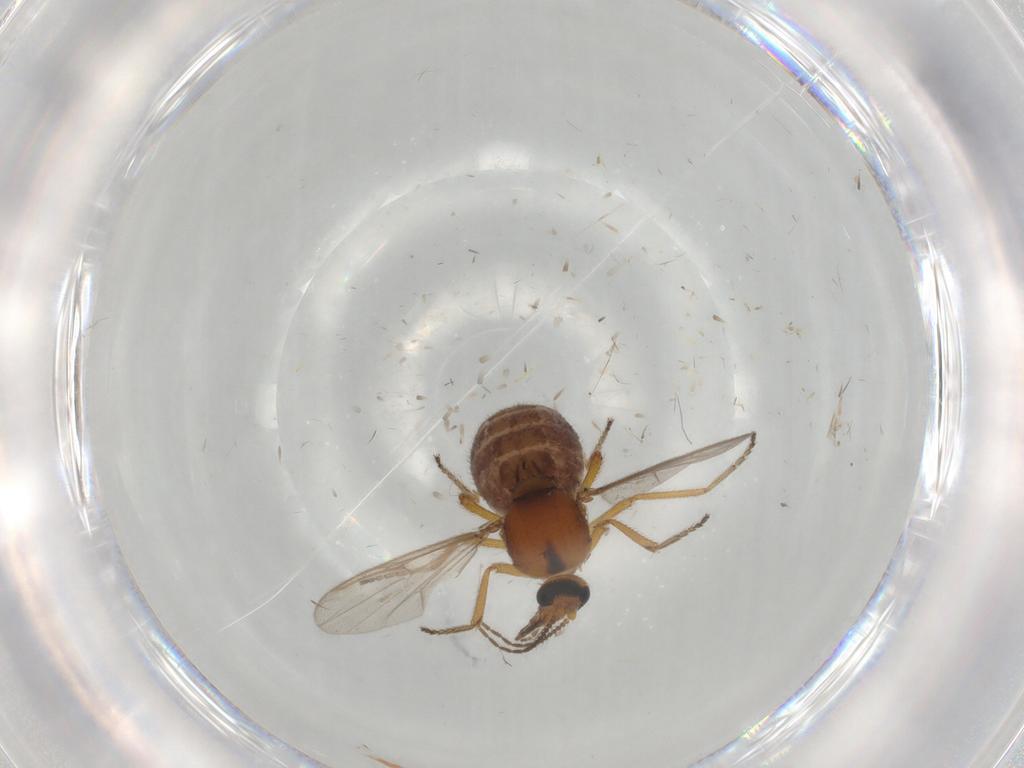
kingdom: Animalia
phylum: Arthropoda
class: Insecta
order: Diptera
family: Ceratopogonidae
